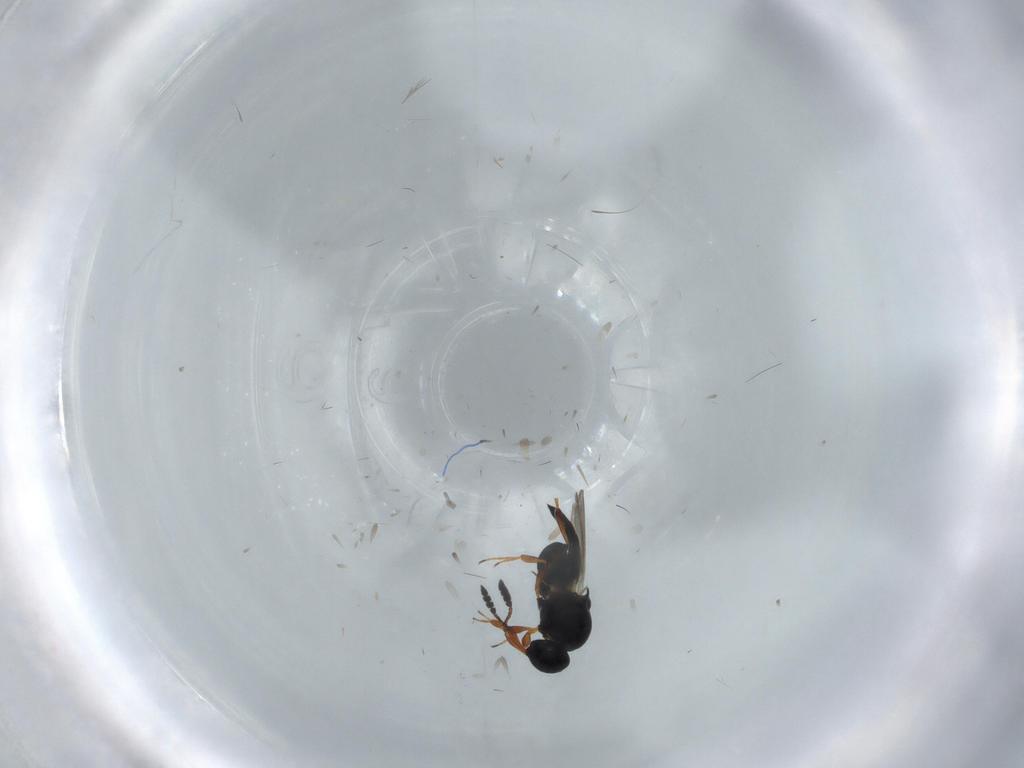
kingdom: Animalia
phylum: Arthropoda
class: Insecta
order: Hymenoptera
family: Platygastridae
